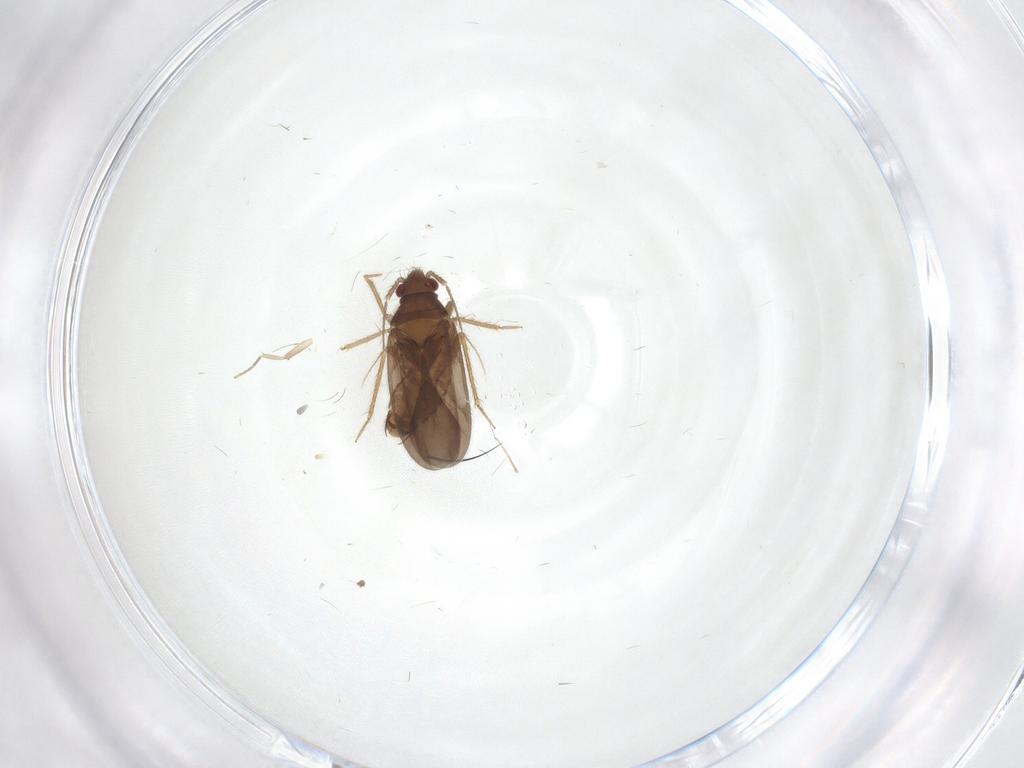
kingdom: Animalia
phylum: Arthropoda
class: Insecta
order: Hemiptera
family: Ceratocombidae
